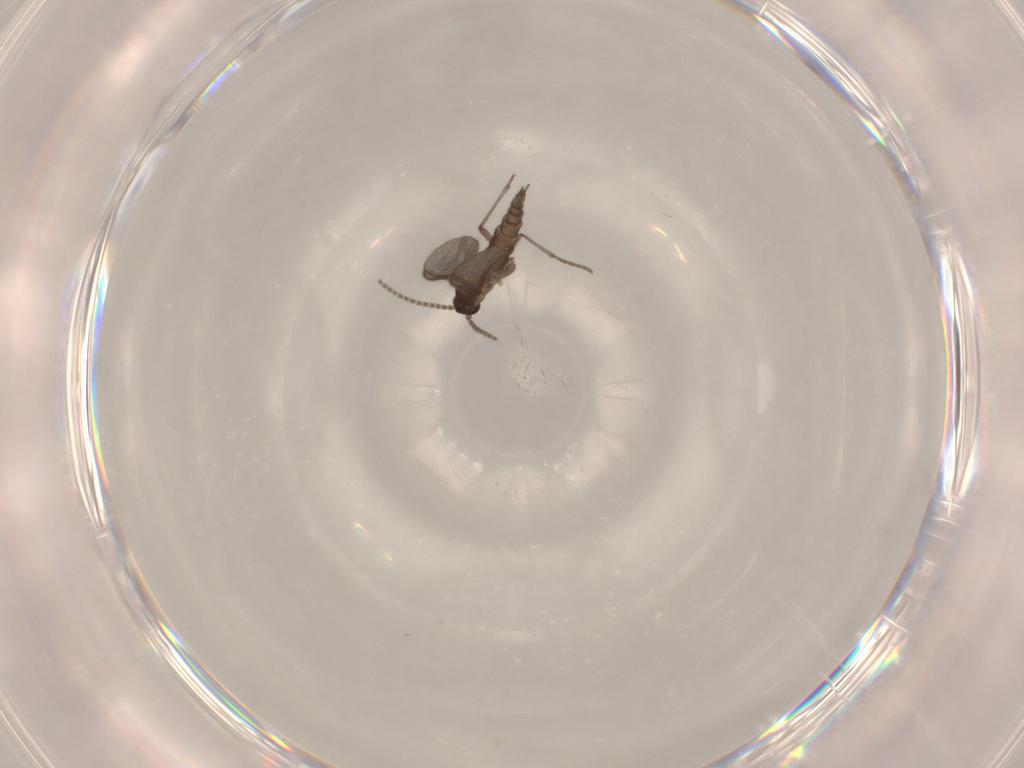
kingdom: Animalia
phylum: Arthropoda
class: Insecta
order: Diptera
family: Sciaridae
